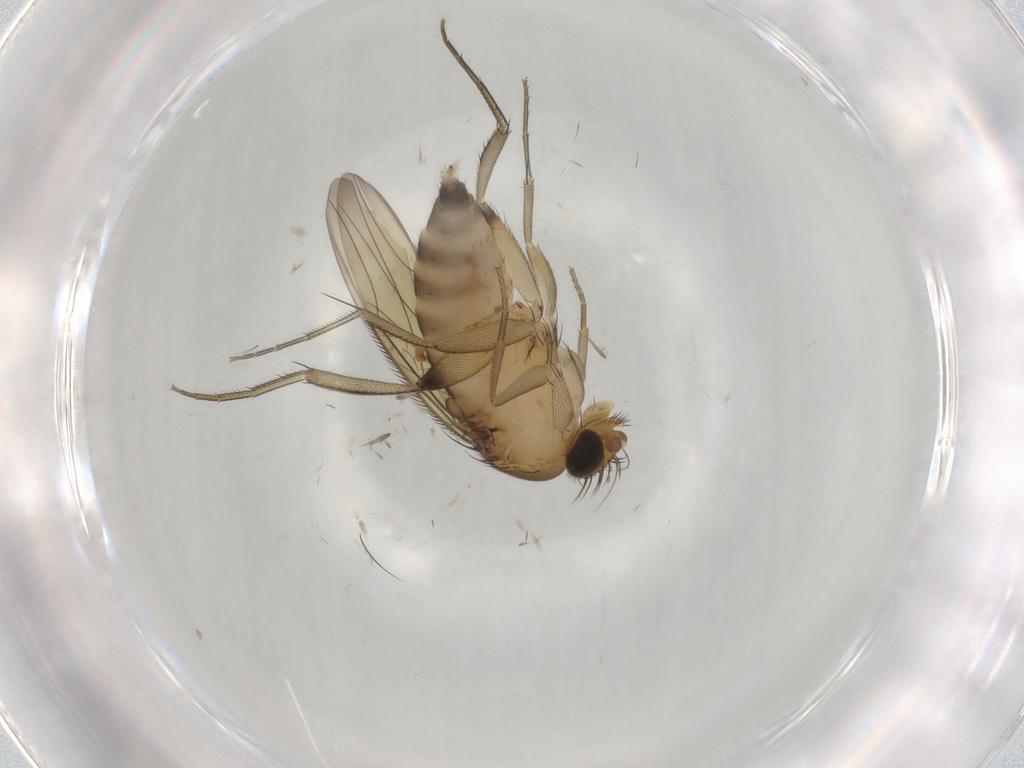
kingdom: Animalia
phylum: Arthropoda
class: Insecta
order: Diptera
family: Phoridae
